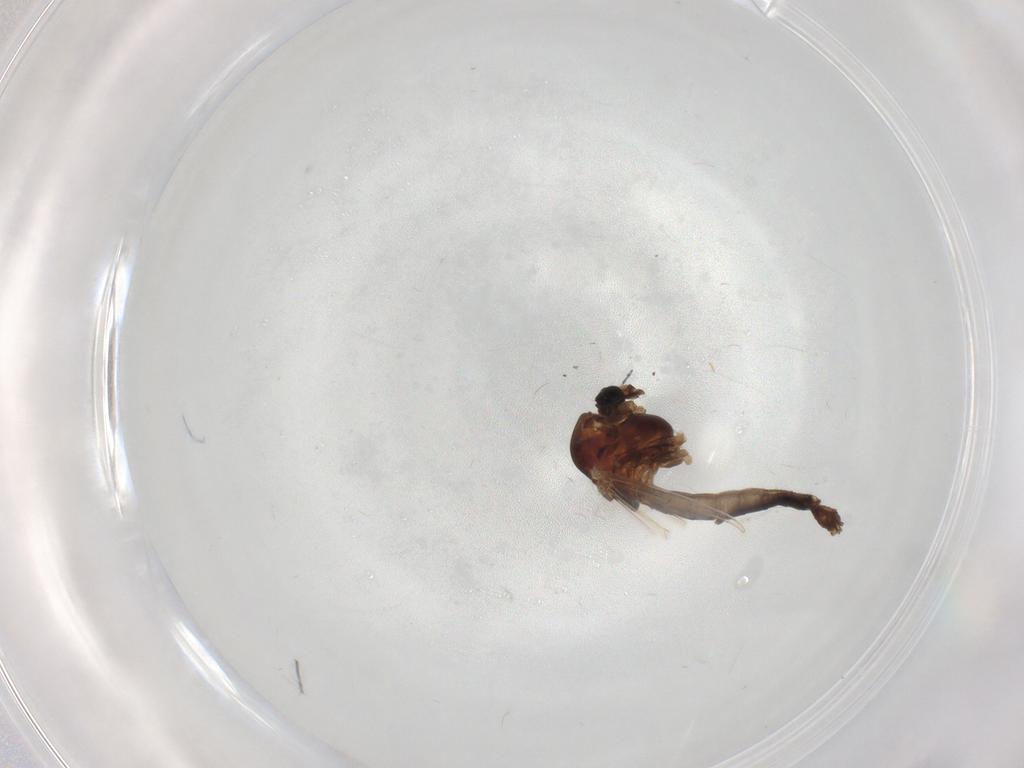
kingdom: Animalia
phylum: Arthropoda
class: Insecta
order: Diptera
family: Chironomidae
